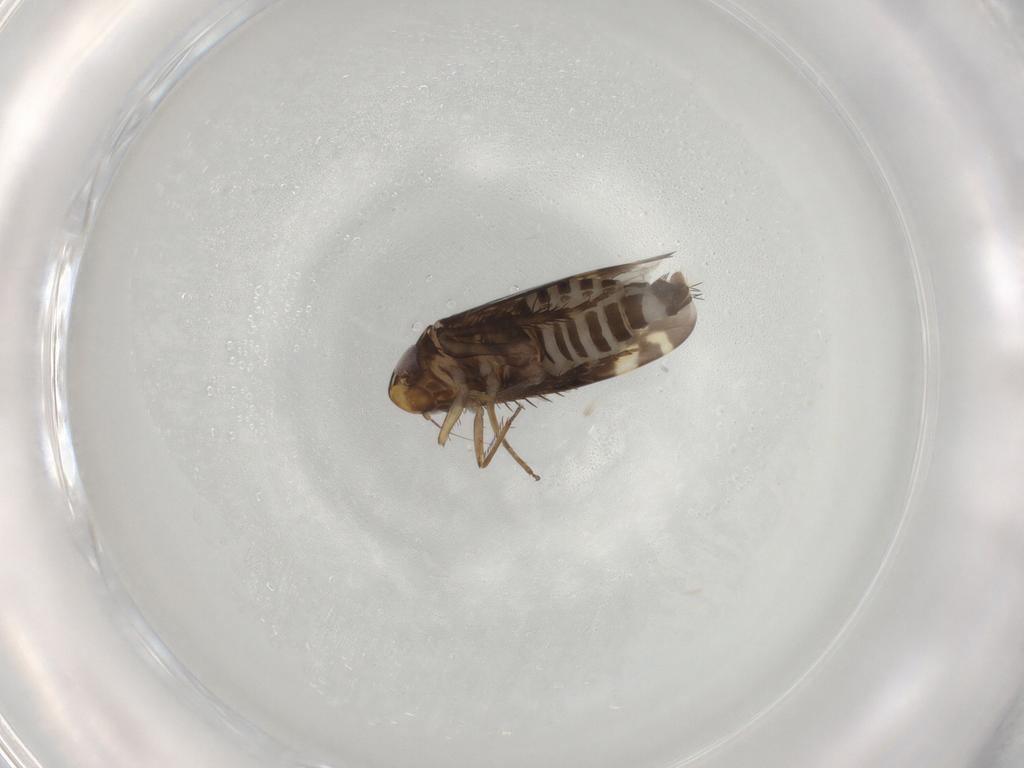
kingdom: Animalia
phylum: Arthropoda
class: Insecta
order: Hemiptera
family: Cicadellidae
